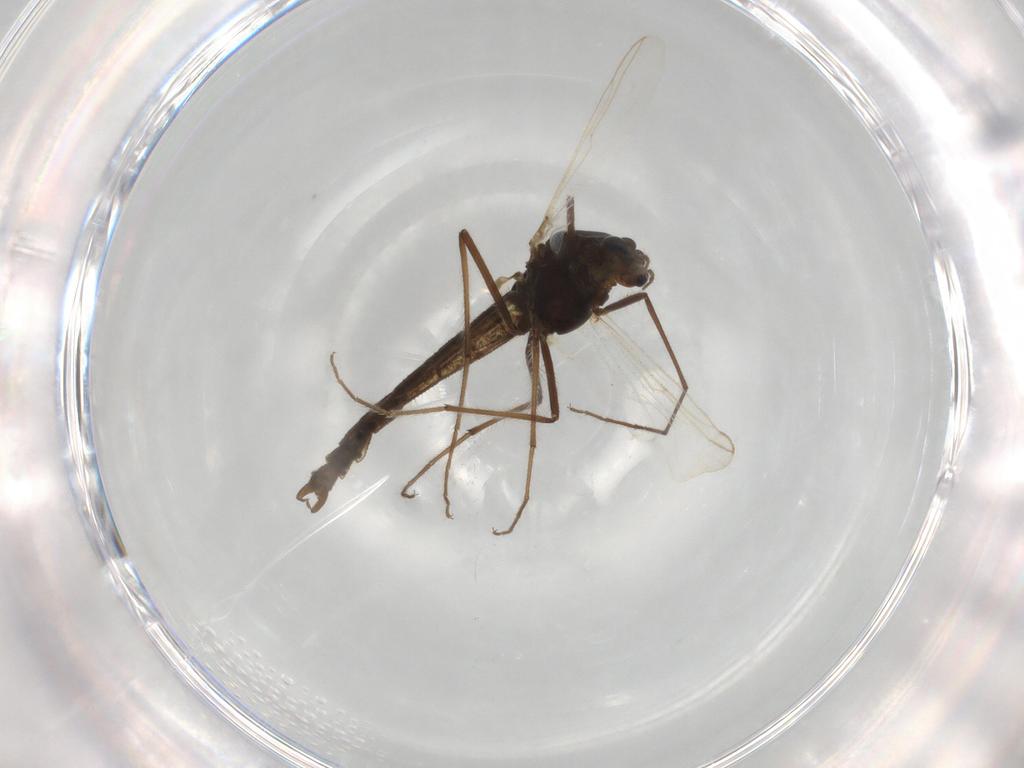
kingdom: Animalia
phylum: Arthropoda
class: Insecta
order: Diptera
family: Chironomidae
